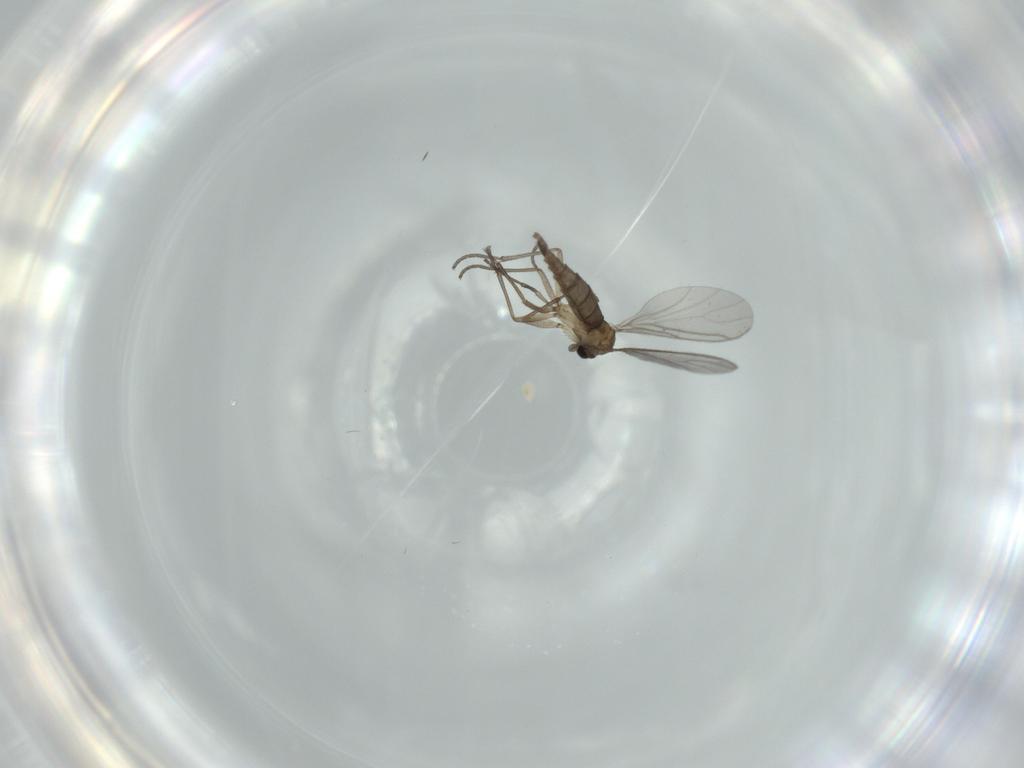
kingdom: Animalia
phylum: Arthropoda
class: Insecta
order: Diptera
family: Sciaridae
